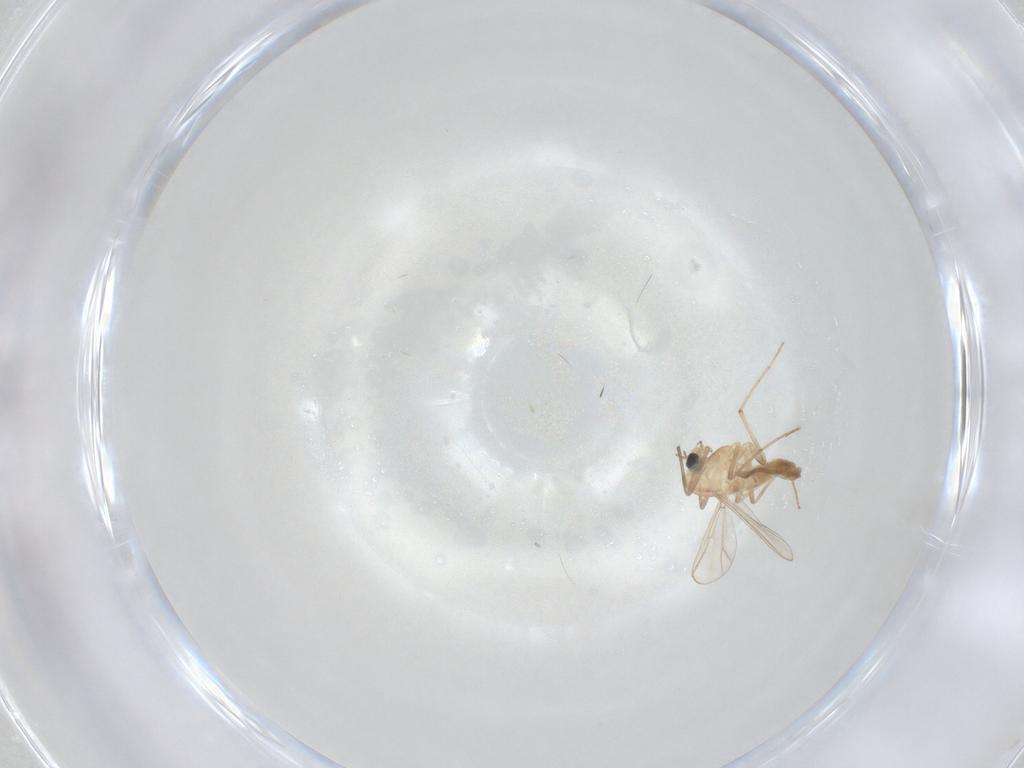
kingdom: Animalia
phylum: Arthropoda
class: Insecta
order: Diptera
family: Chironomidae
